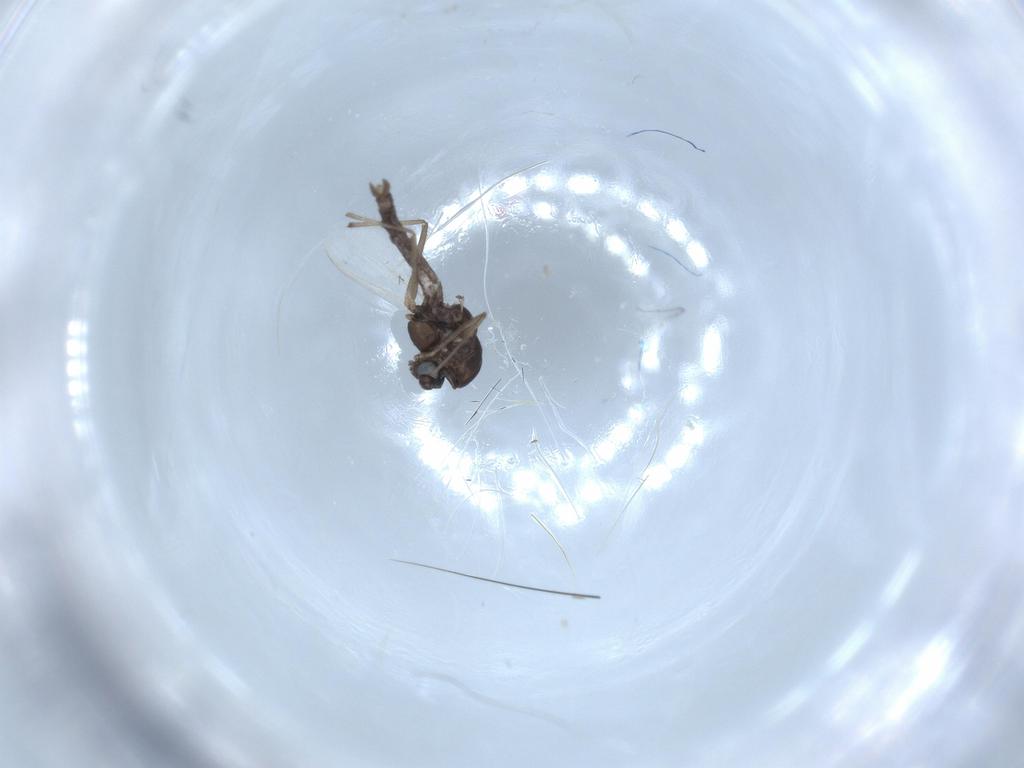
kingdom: Animalia
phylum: Arthropoda
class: Insecta
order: Diptera
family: Chironomidae
